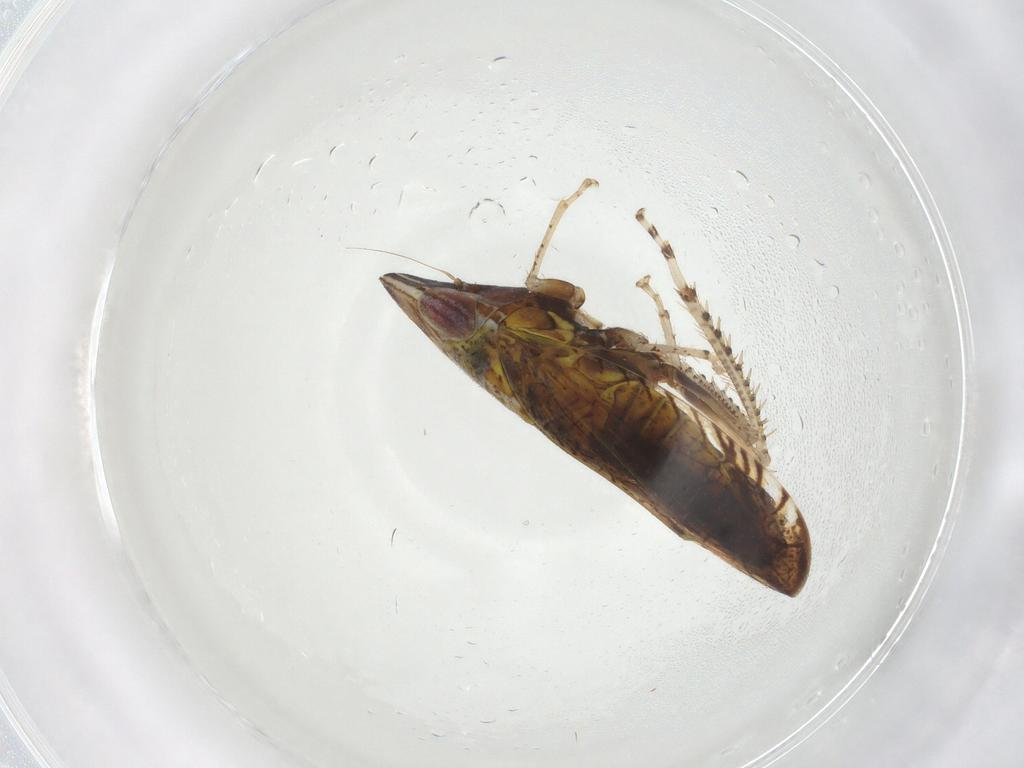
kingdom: Animalia
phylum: Arthropoda
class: Insecta
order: Hemiptera
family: Cicadellidae
